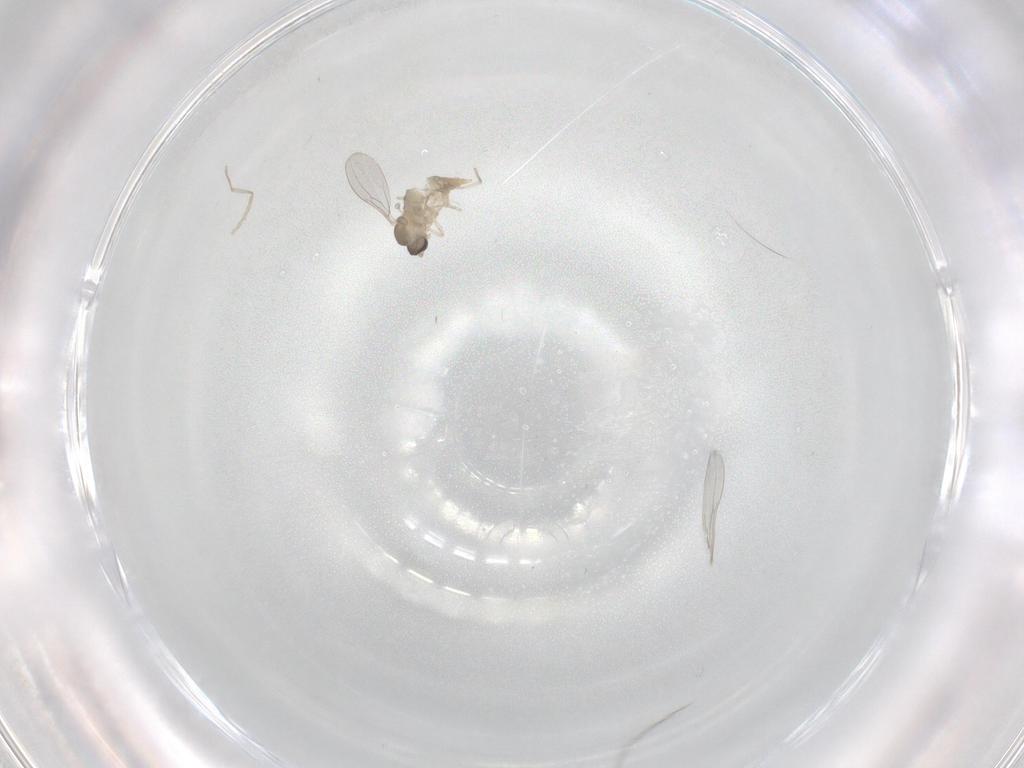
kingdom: Animalia
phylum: Arthropoda
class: Insecta
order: Diptera
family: Cecidomyiidae
